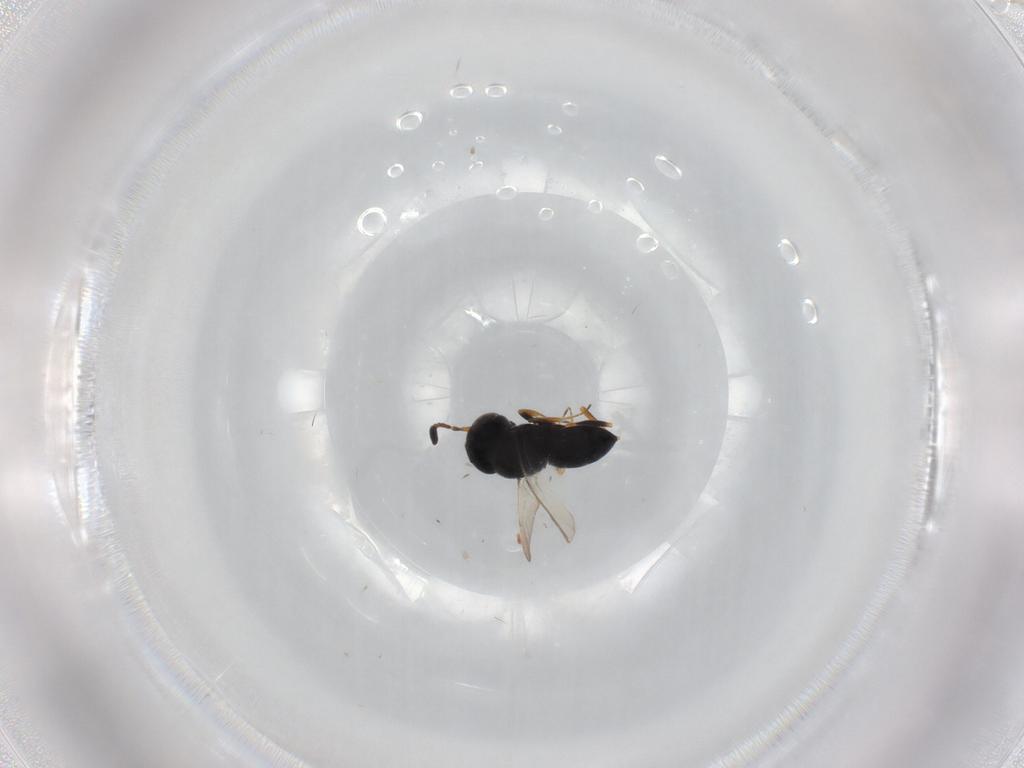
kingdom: Animalia
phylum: Arthropoda
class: Insecta
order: Coleoptera
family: Curculionidae
